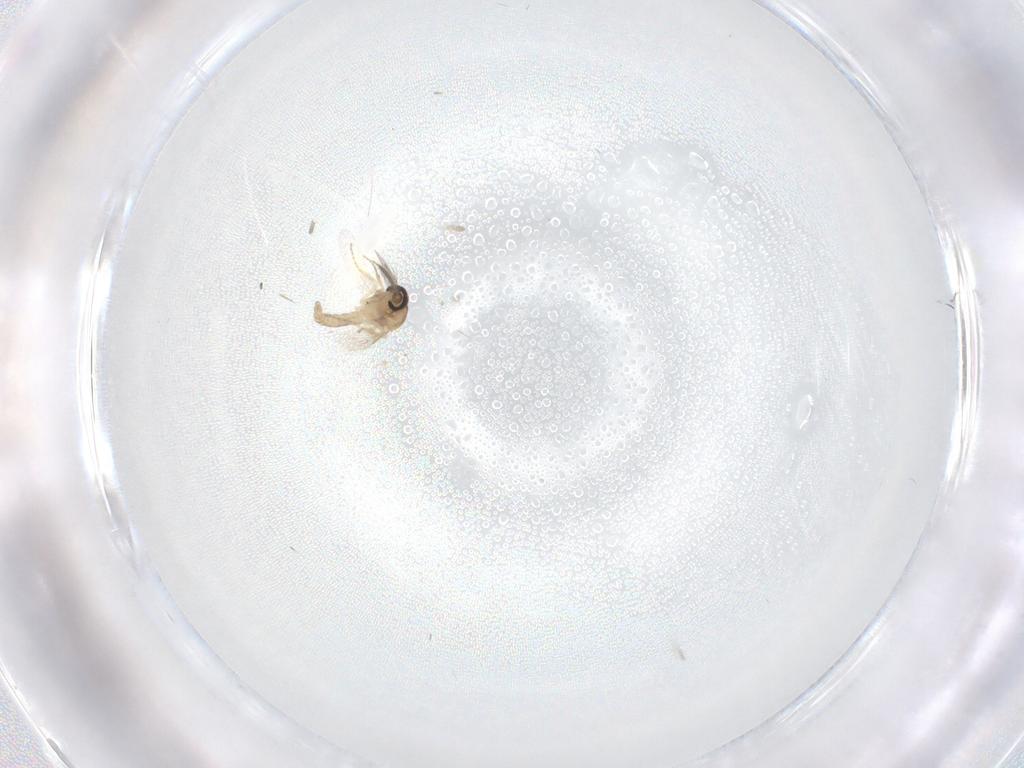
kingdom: Animalia
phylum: Arthropoda
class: Insecta
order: Diptera
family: Ceratopogonidae
